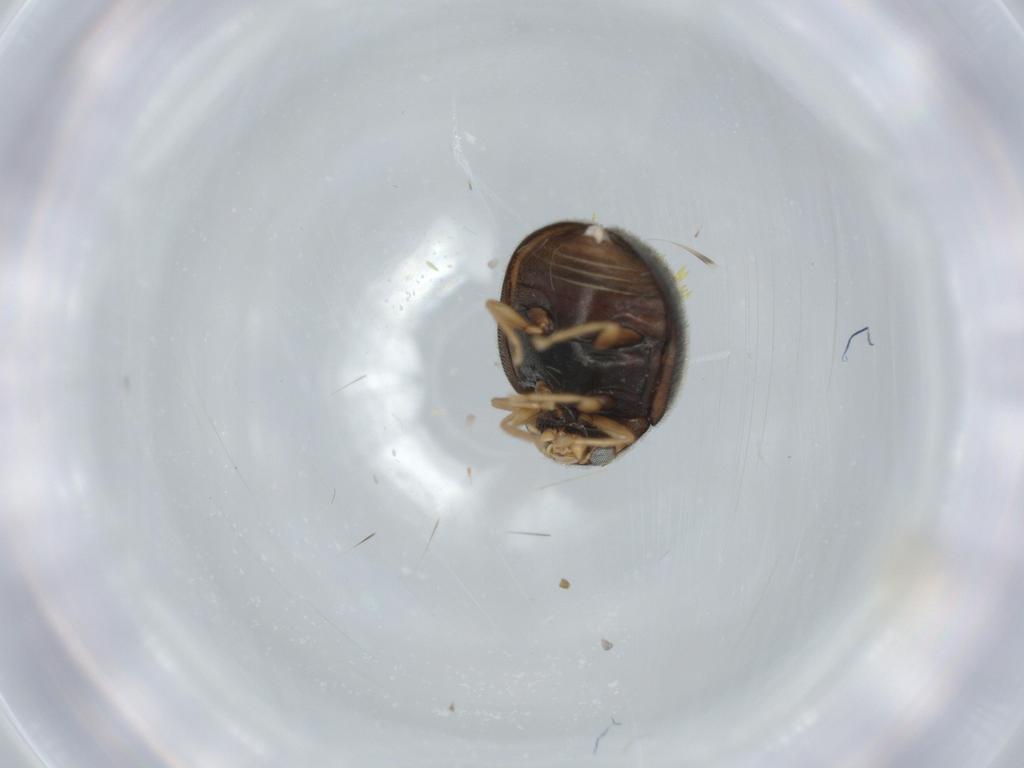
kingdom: Animalia
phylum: Arthropoda
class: Insecta
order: Coleoptera
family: Coccinellidae
